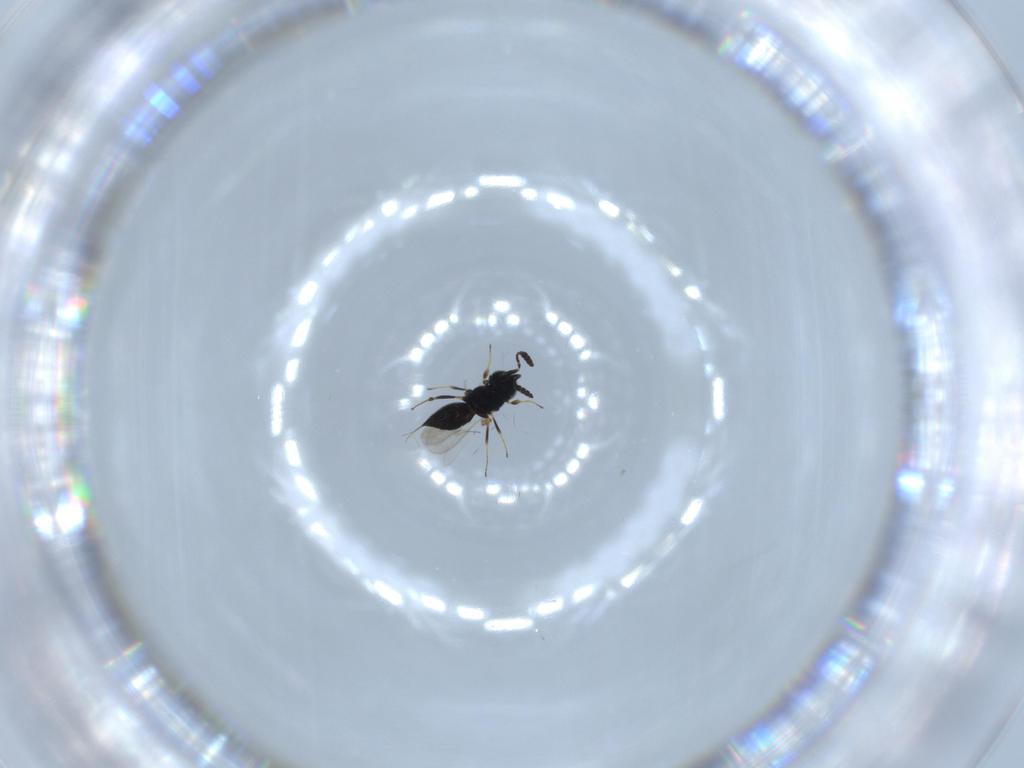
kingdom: Animalia
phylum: Arthropoda
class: Insecta
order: Hymenoptera
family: Scelionidae
